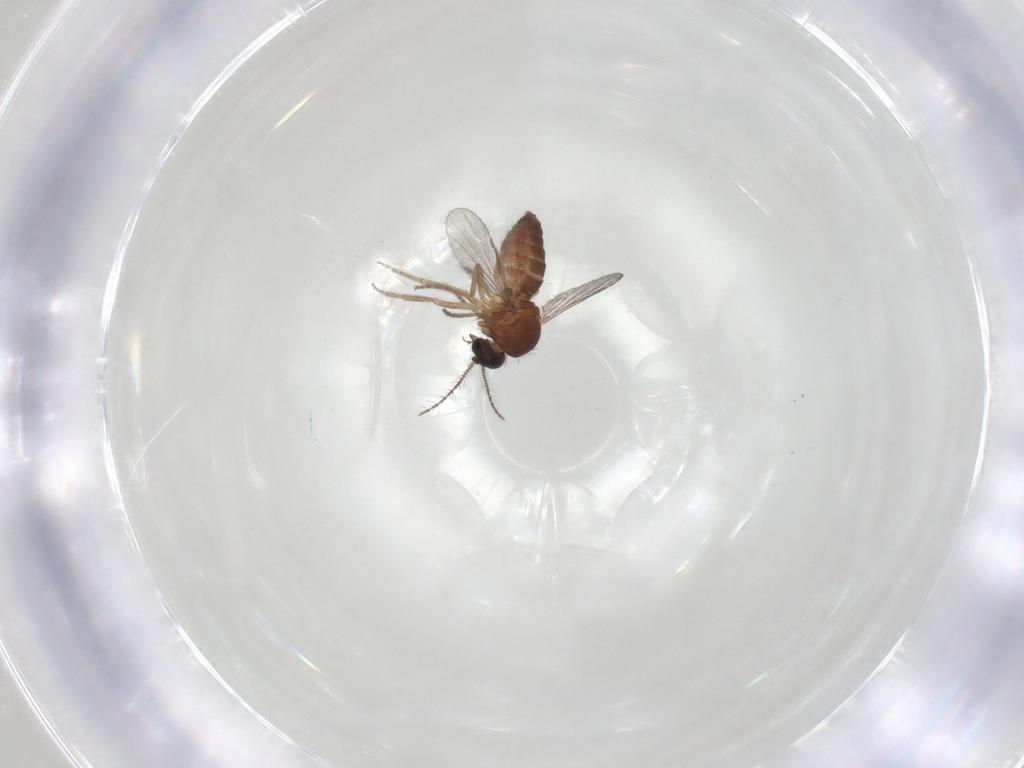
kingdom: Animalia
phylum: Arthropoda
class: Insecta
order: Diptera
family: Ceratopogonidae
